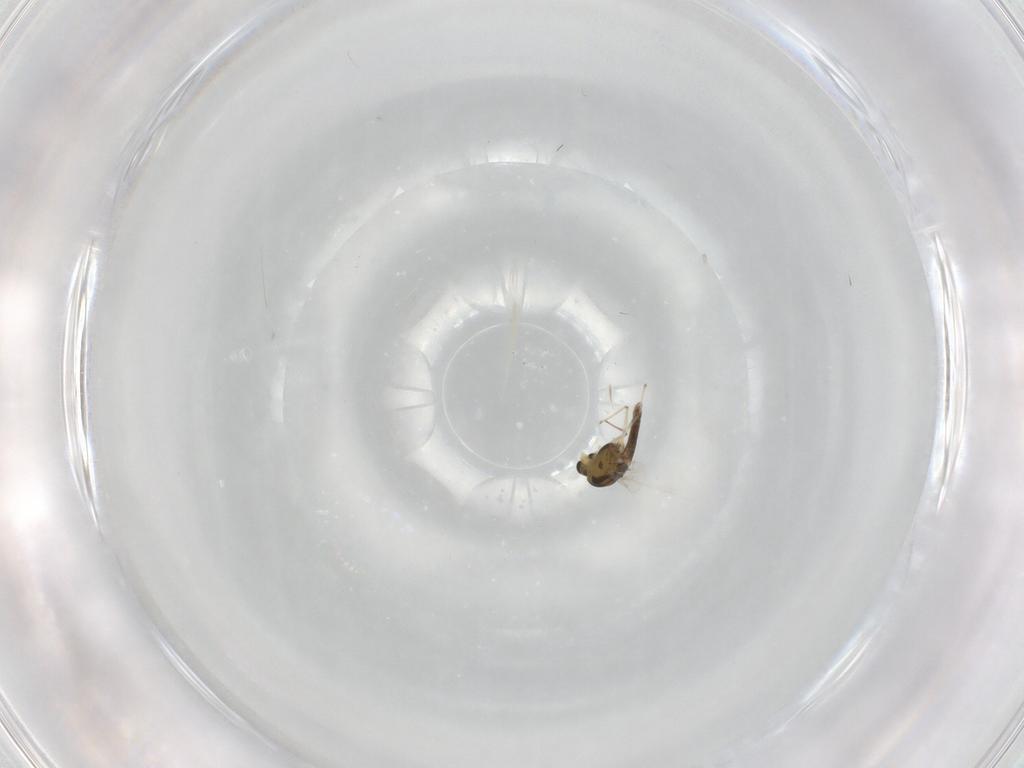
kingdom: Animalia
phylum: Arthropoda
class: Insecta
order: Diptera
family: Chironomidae
